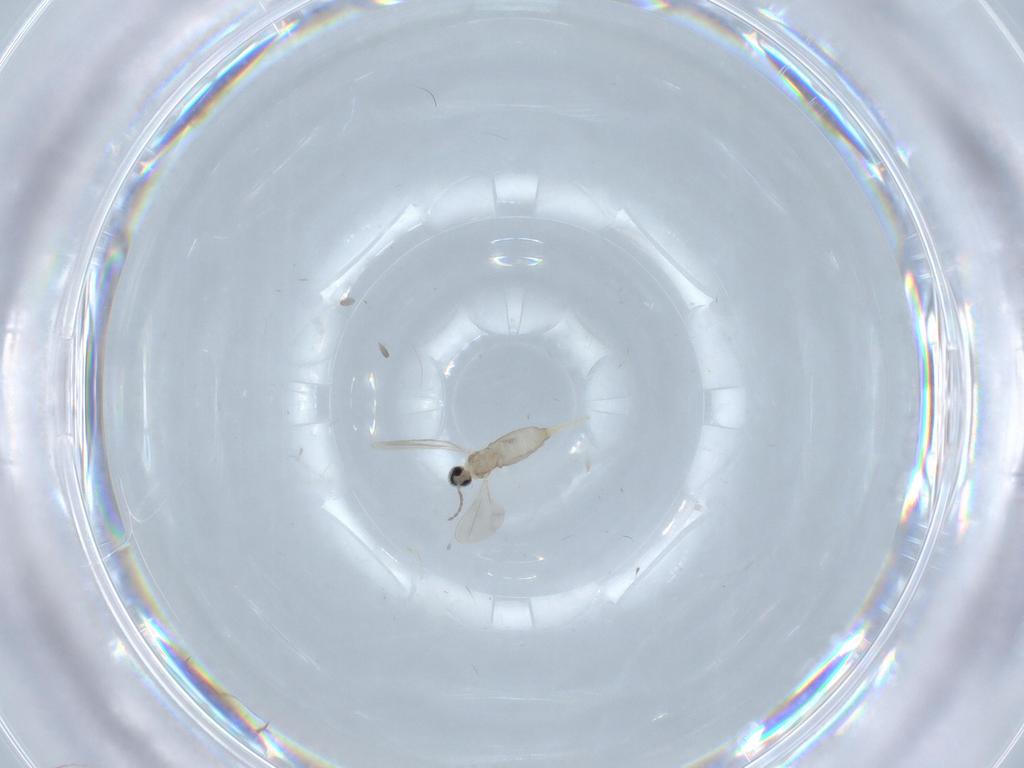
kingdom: Animalia
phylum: Arthropoda
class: Insecta
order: Diptera
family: Cecidomyiidae
